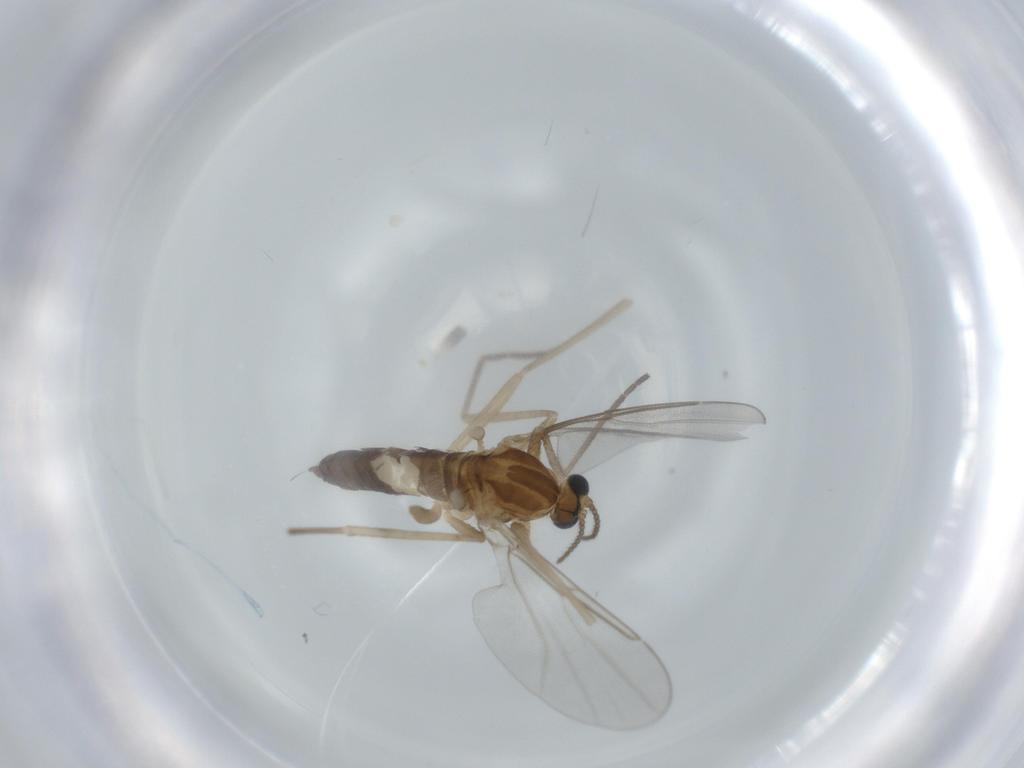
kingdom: Animalia
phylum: Arthropoda
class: Insecta
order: Diptera
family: Cecidomyiidae
